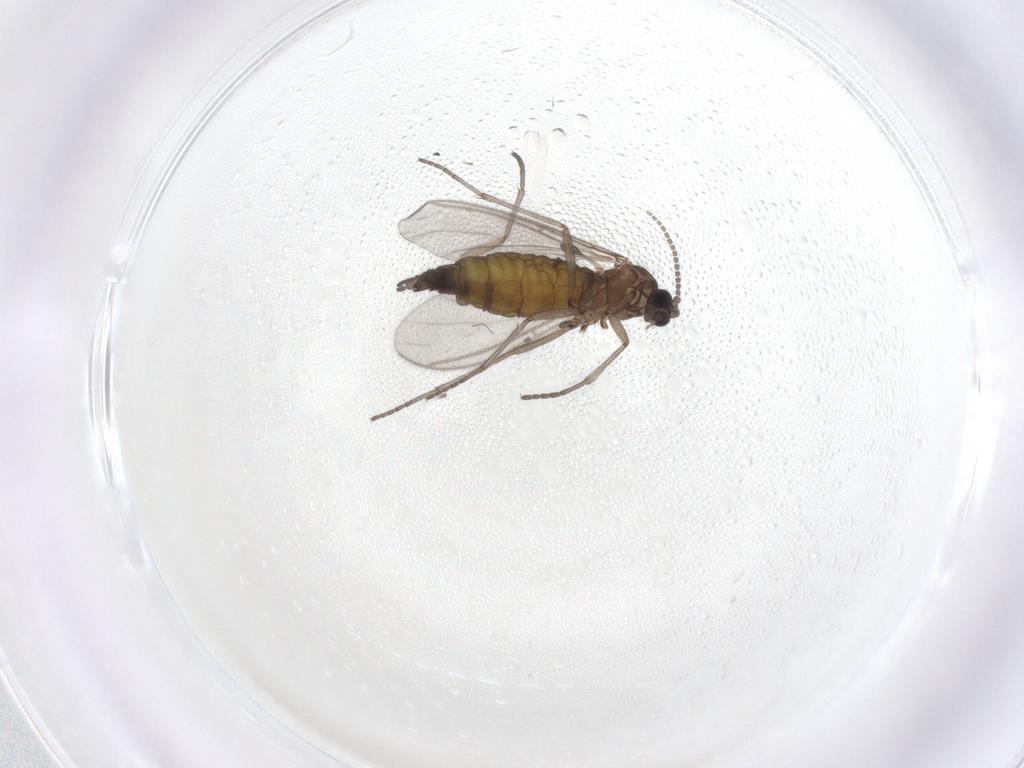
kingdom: Animalia
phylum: Arthropoda
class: Insecta
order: Diptera
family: Sciaridae
